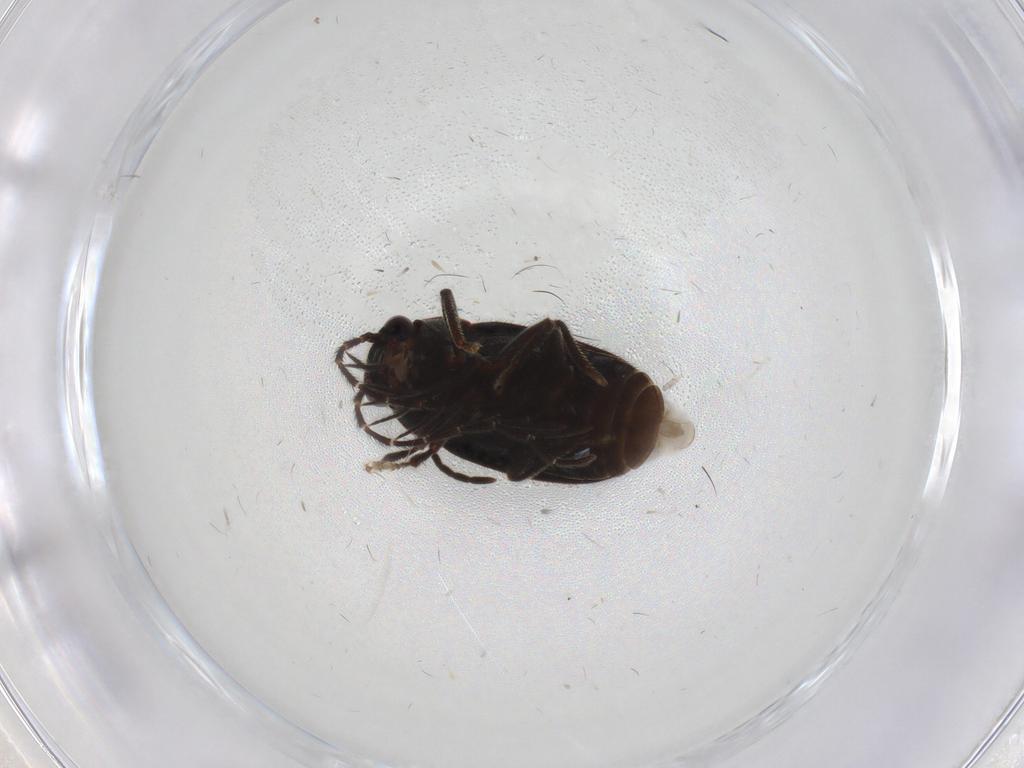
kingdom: Animalia
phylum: Arthropoda
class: Insecta
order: Coleoptera
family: Ptilodactylidae
